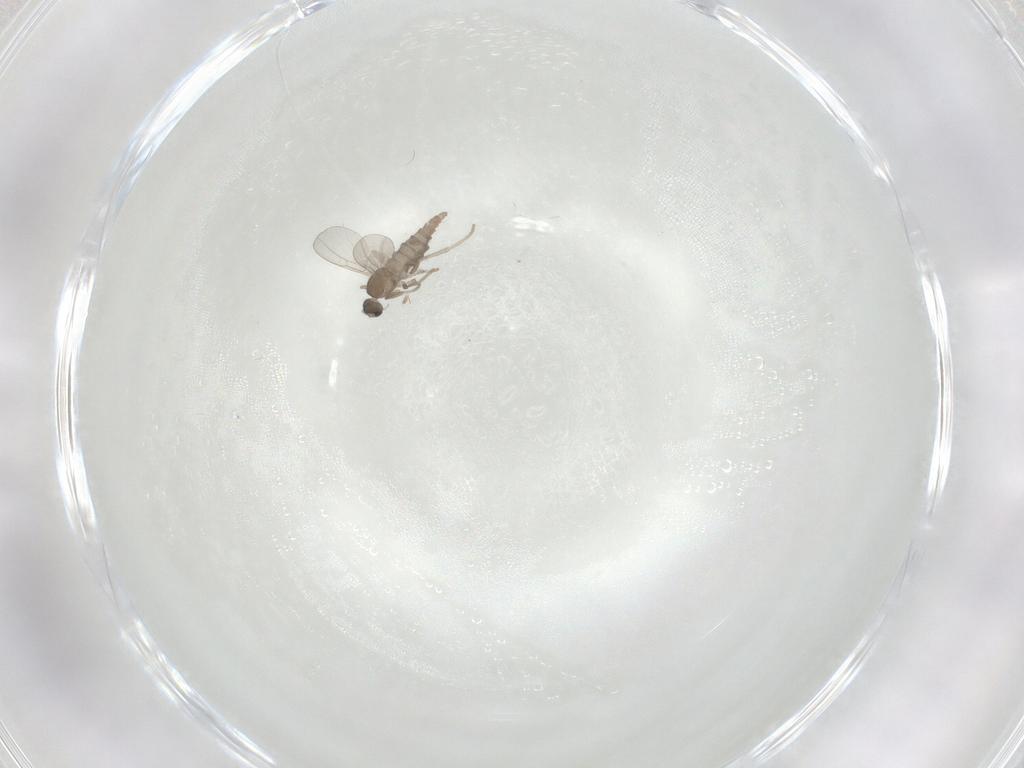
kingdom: Animalia
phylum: Arthropoda
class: Insecta
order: Diptera
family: Cecidomyiidae
